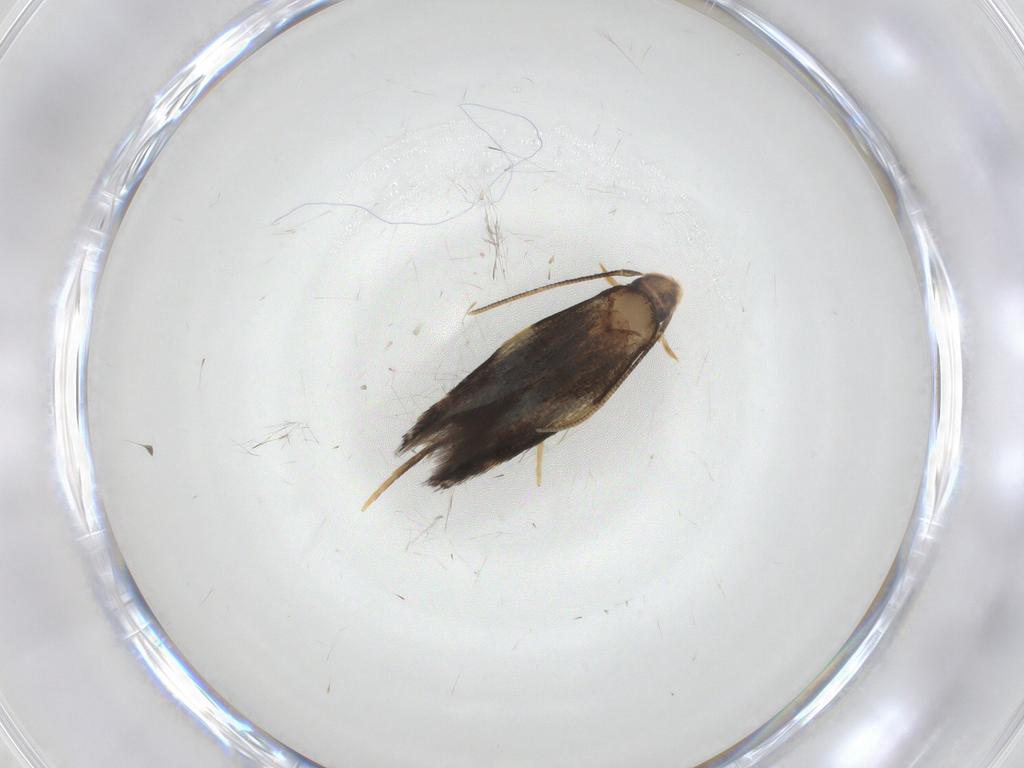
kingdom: Animalia
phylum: Arthropoda
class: Insecta
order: Lepidoptera
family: Gelechiidae
